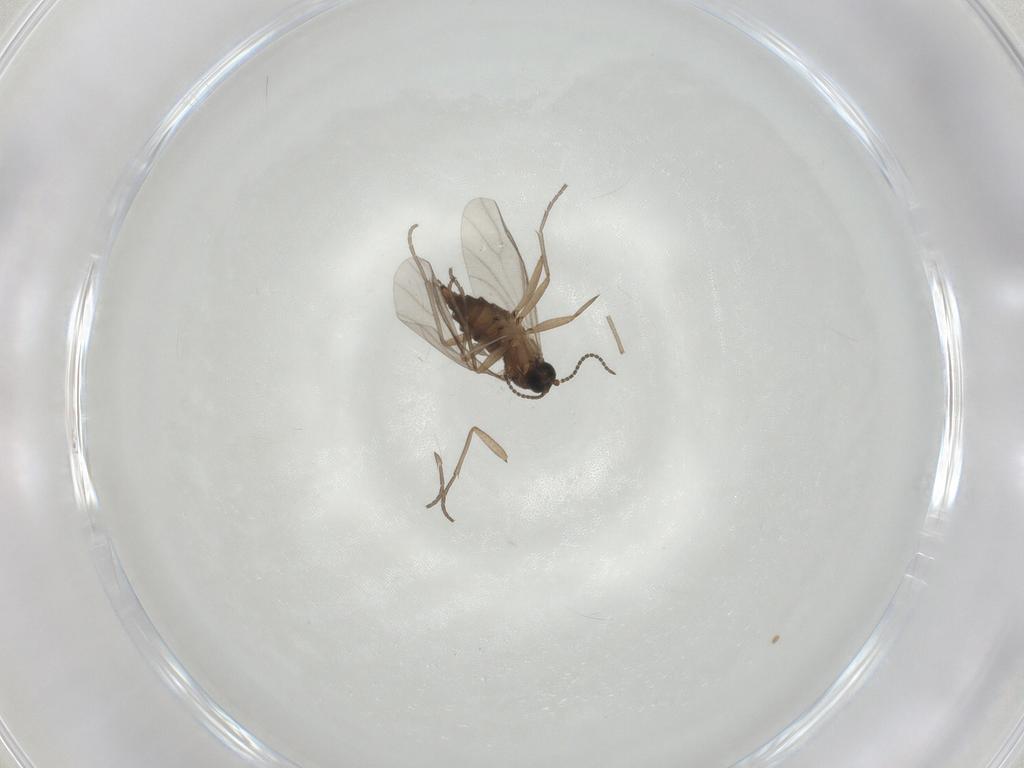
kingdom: Animalia
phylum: Arthropoda
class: Insecta
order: Diptera
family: Sciaridae
